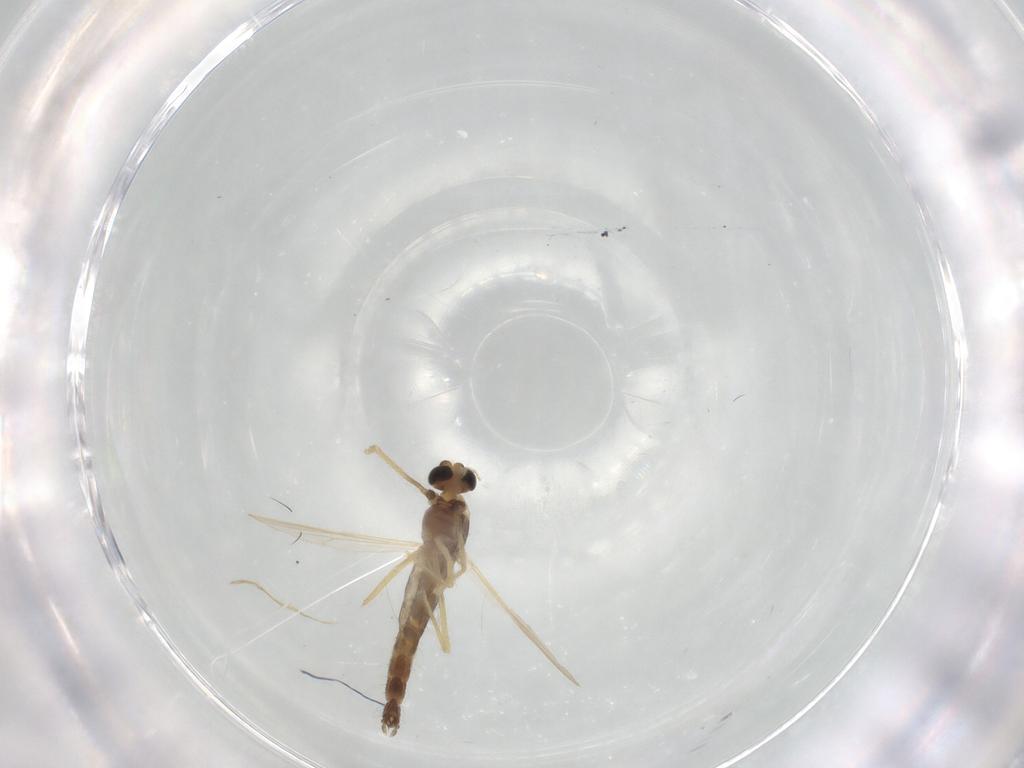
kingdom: Animalia
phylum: Arthropoda
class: Insecta
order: Diptera
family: Chironomidae
